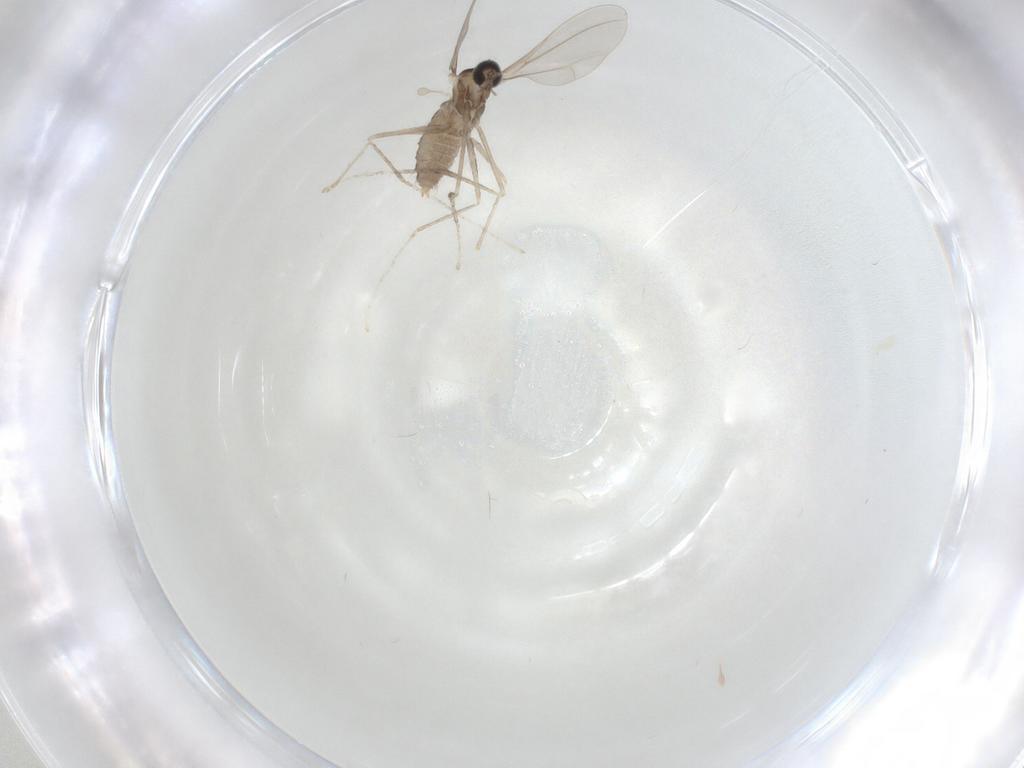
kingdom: Animalia
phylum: Arthropoda
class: Insecta
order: Diptera
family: Cecidomyiidae
